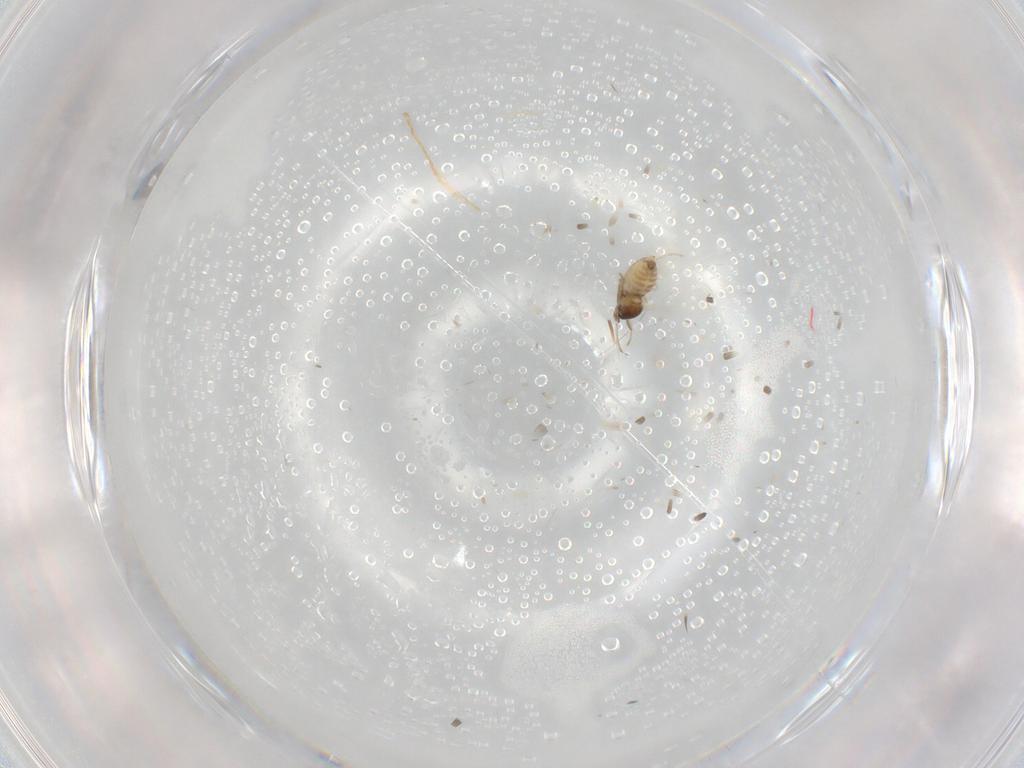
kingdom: Animalia
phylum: Arthropoda
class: Insecta
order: Diptera
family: Cecidomyiidae
